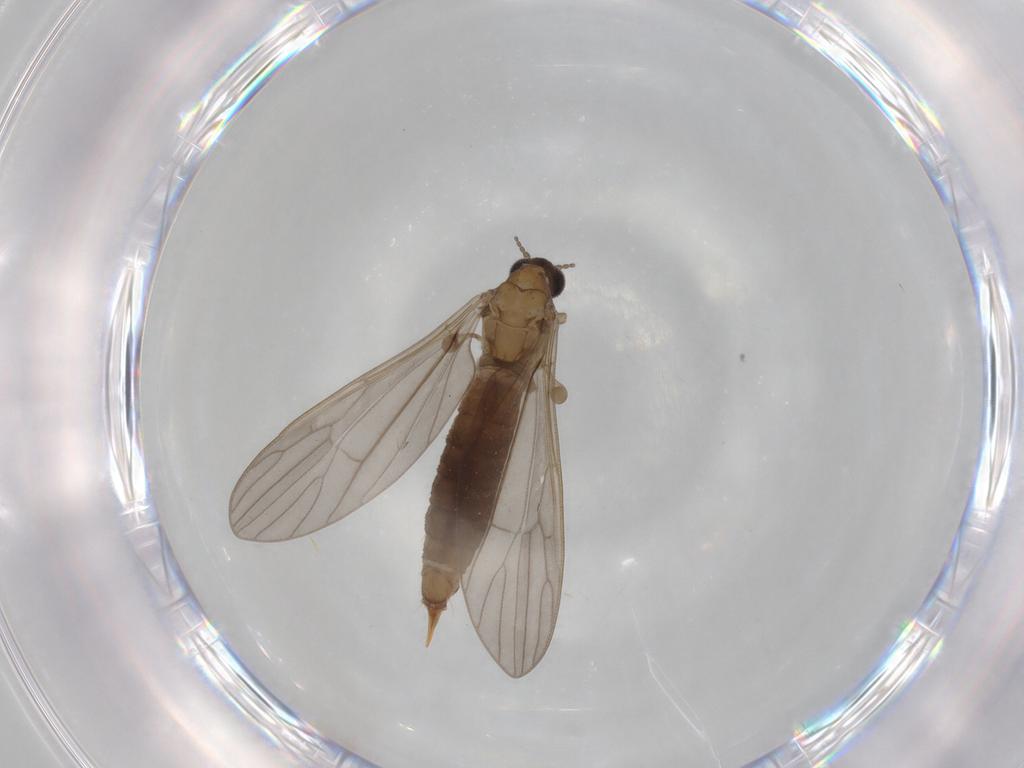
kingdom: Animalia
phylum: Arthropoda
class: Insecta
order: Diptera
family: Limoniidae
